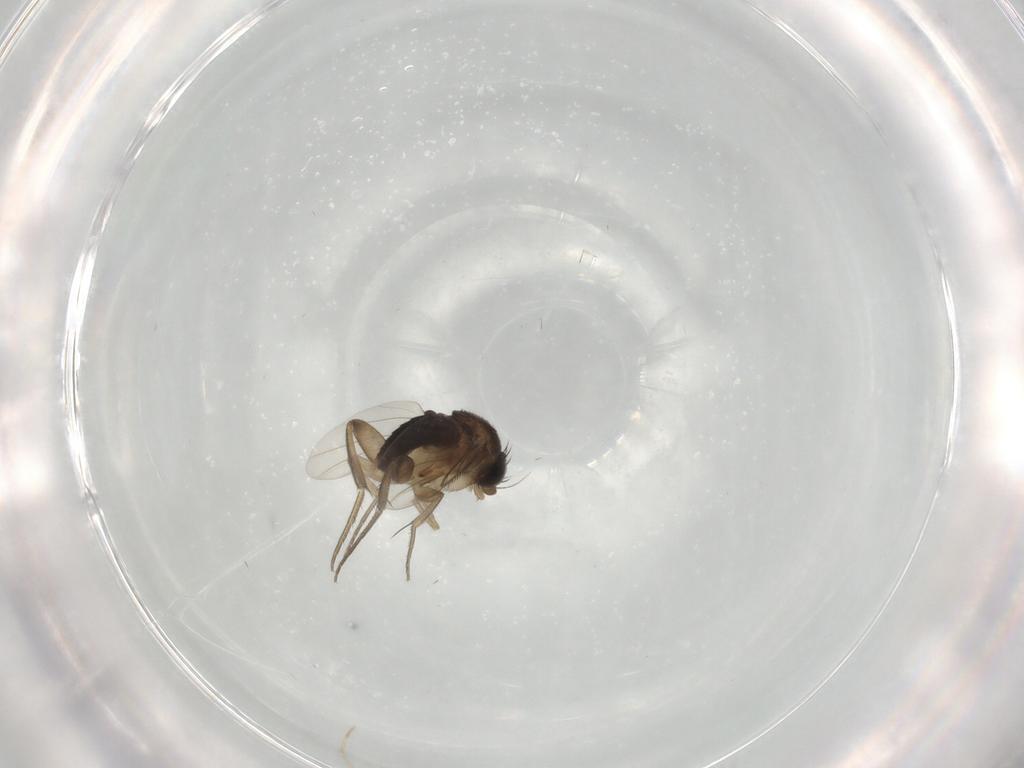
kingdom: Animalia
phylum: Arthropoda
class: Insecta
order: Diptera
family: Phoridae
